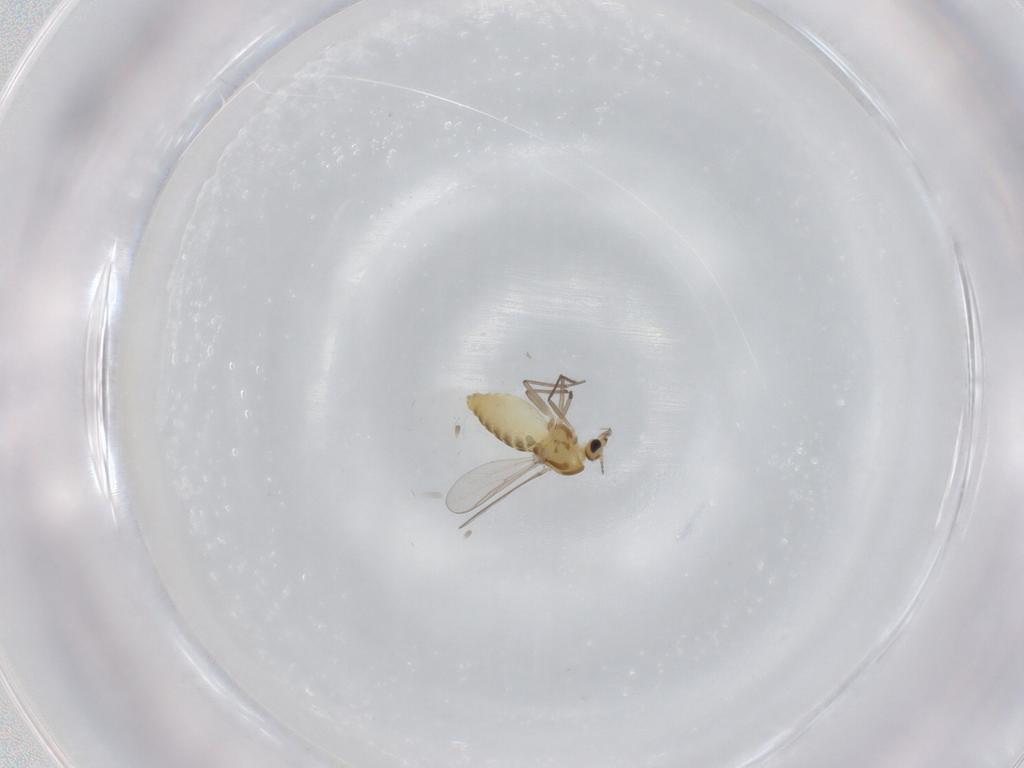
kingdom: Animalia
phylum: Arthropoda
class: Insecta
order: Diptera
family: Chironomidae
